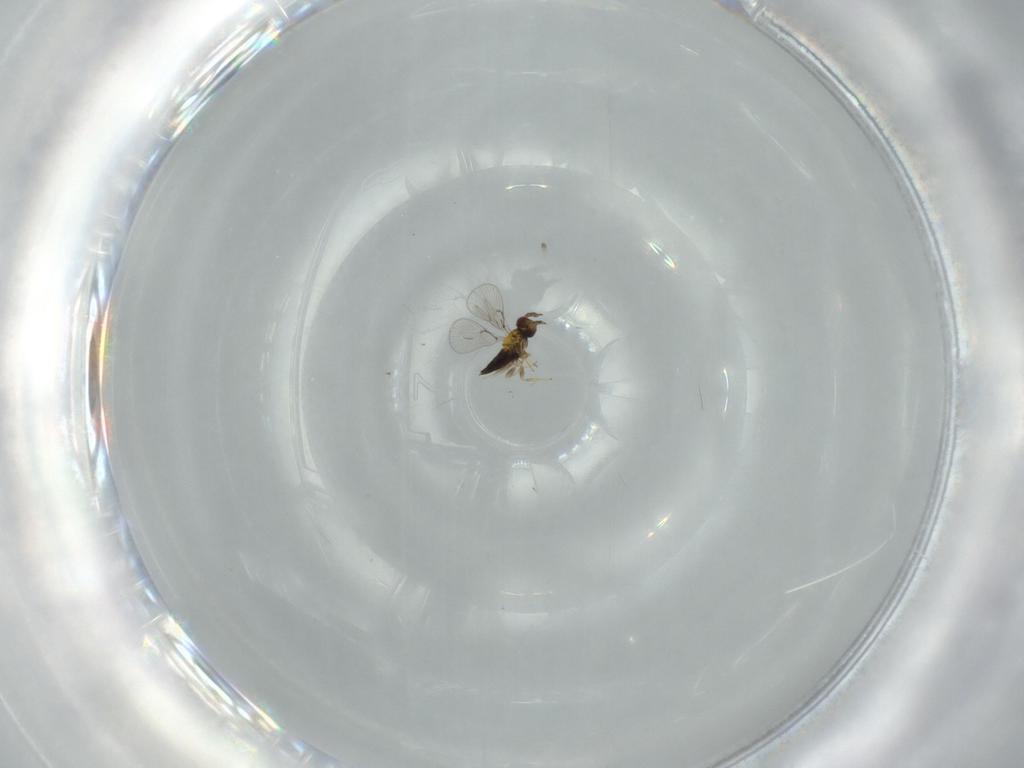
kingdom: Animalia
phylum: Arthropoda
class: Insecta
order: Hymenoptera
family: Trichogrammatidae
